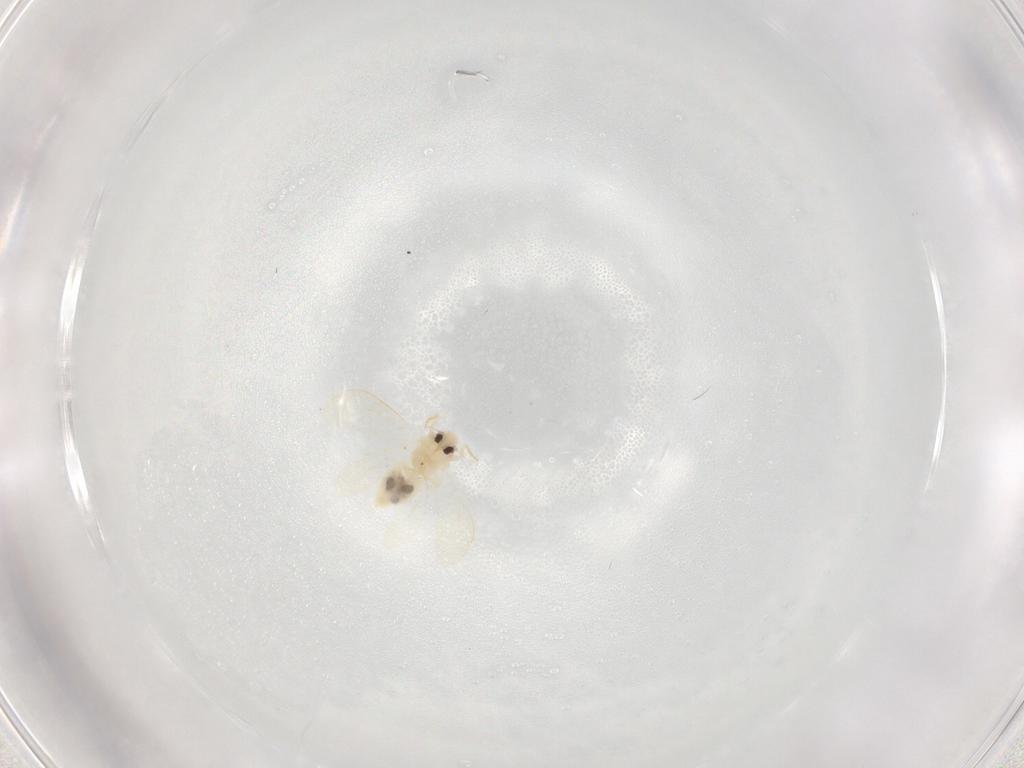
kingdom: Animalia
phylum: Arthropoda
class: Insecta
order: Hemiptera
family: Aleyrodidae
